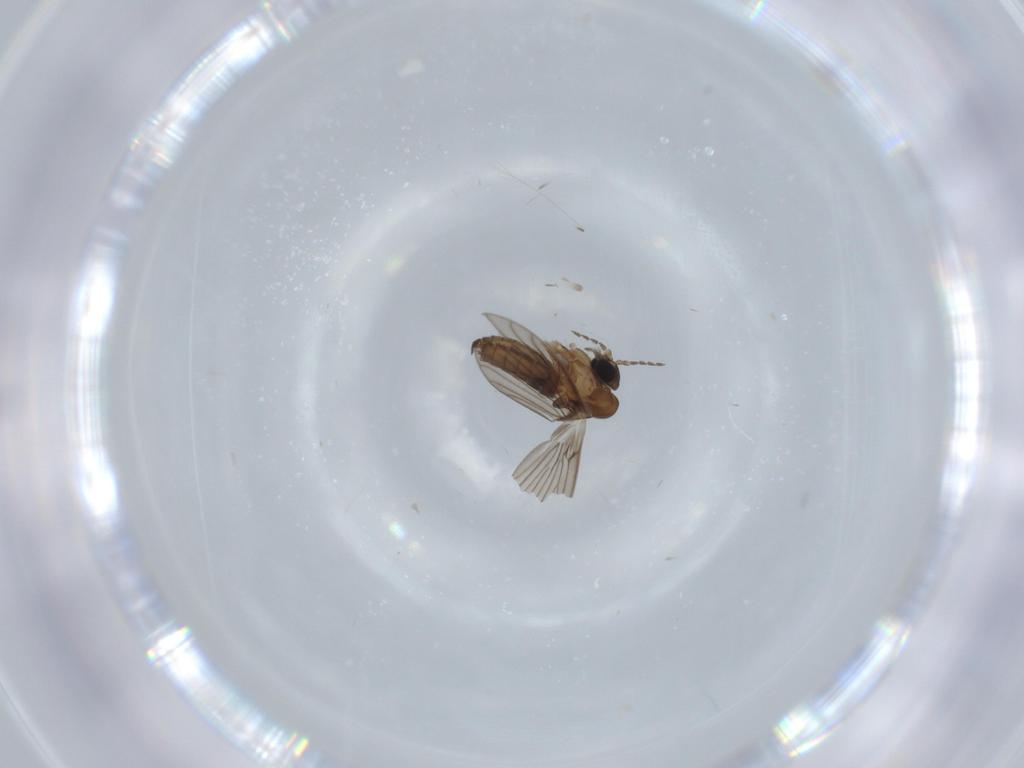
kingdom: Animalia
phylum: Arthropoda
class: Insecta
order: Diptera
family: Psychodidae
